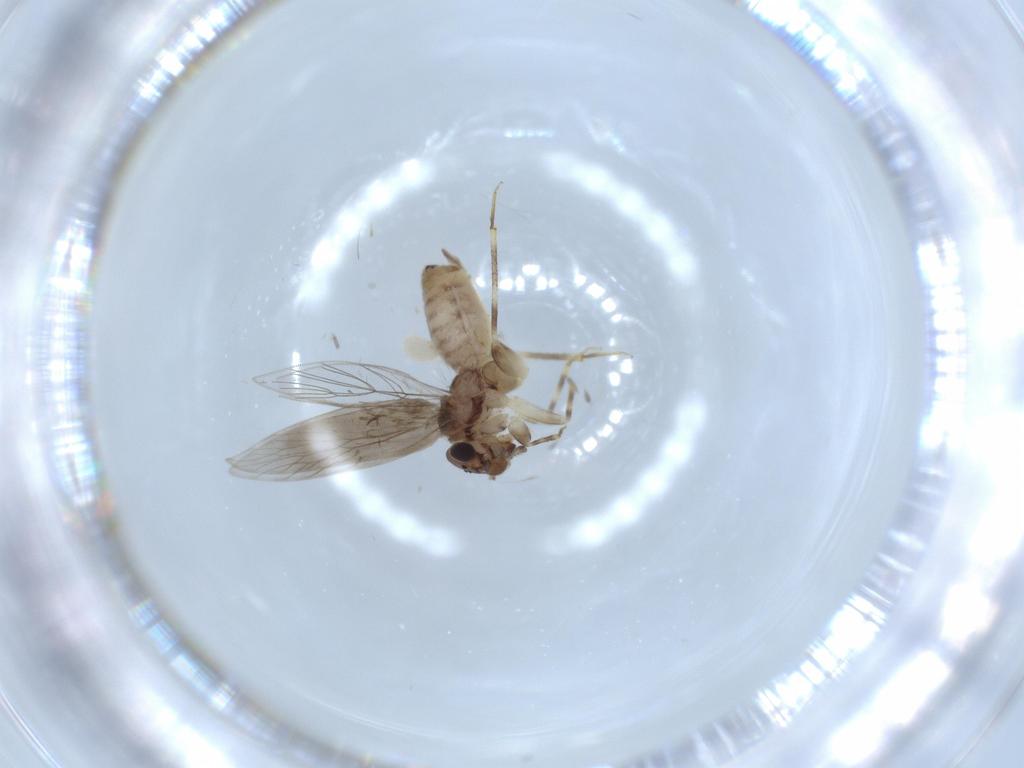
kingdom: Animalia
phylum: Arthropoda
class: Insecta
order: Psocodea
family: Lepidopsocidae
